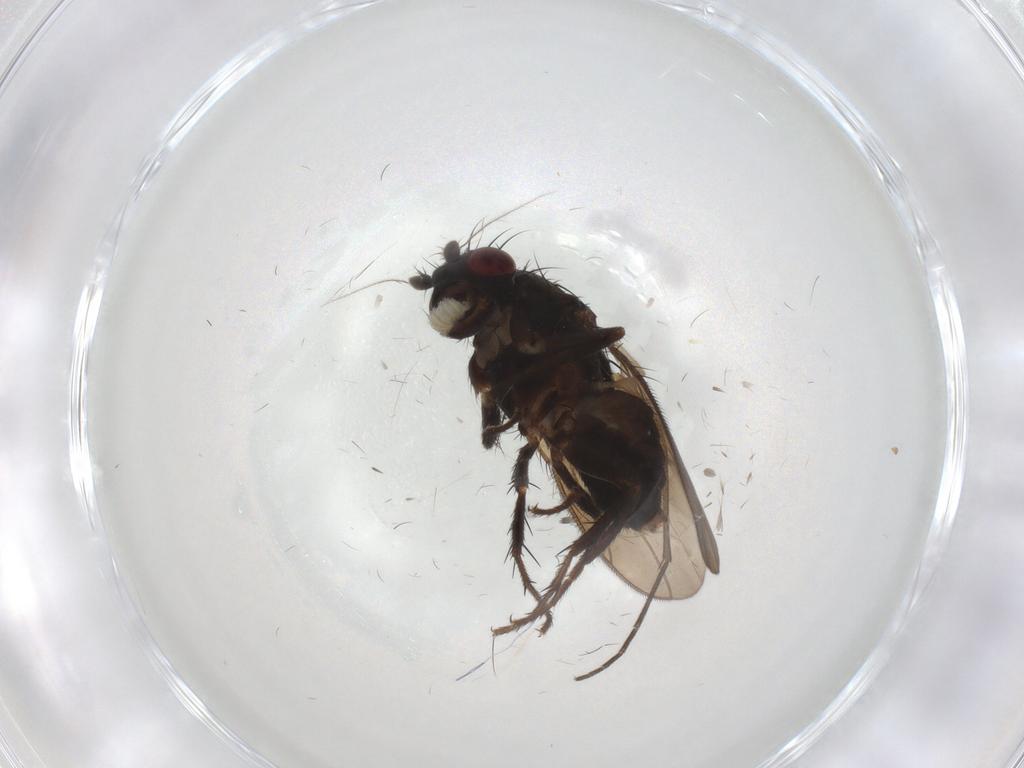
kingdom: Animalia
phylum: Arthropoda
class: Insecta
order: Diptera
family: Sphaeroceridae
